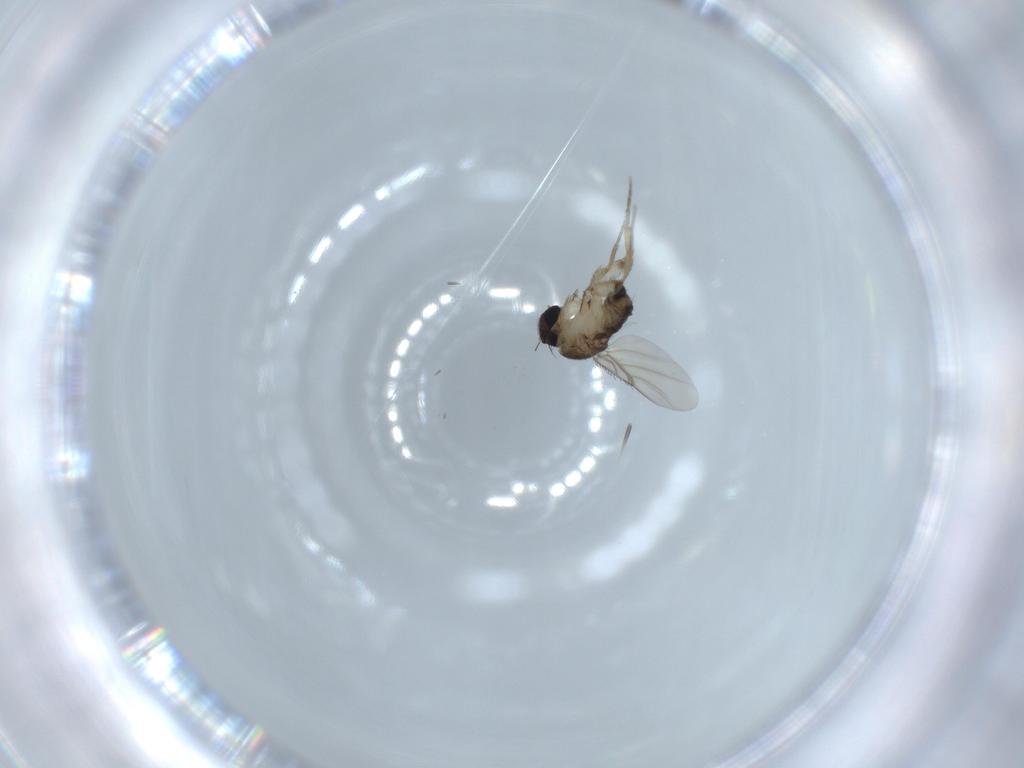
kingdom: Animalia
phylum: Arthropoda
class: Insecta
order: Diptera
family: Phoridae
